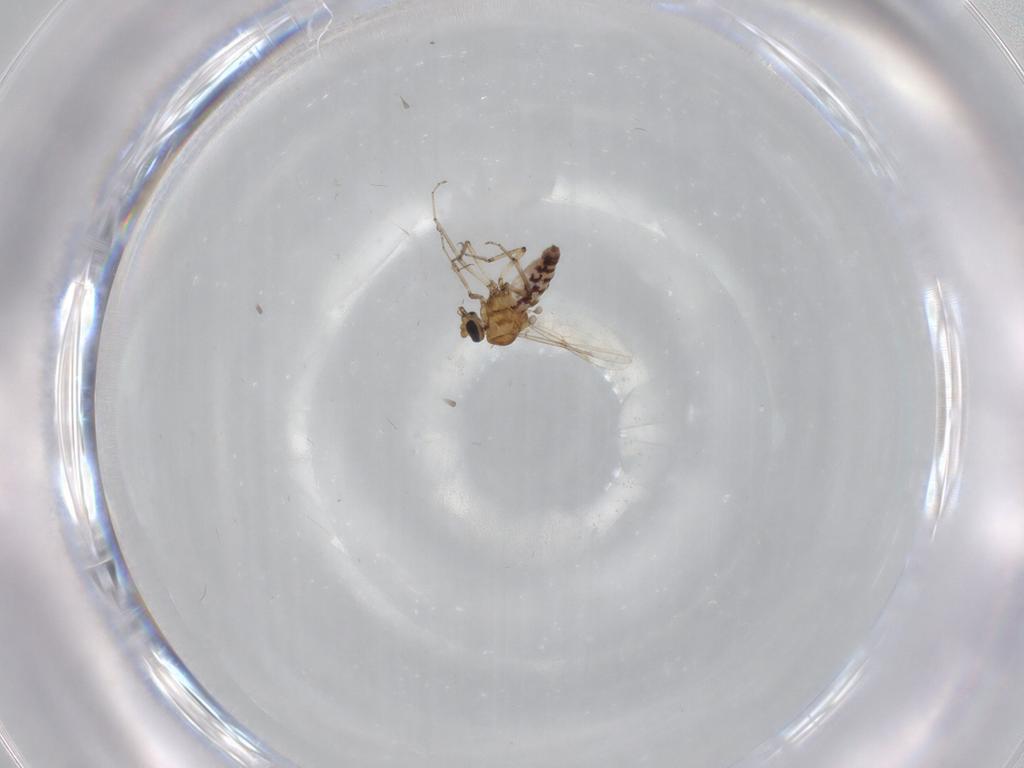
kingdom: Animalia
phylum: Arthropoda
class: Insecta
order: Diptera
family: Ceratopogonidae
